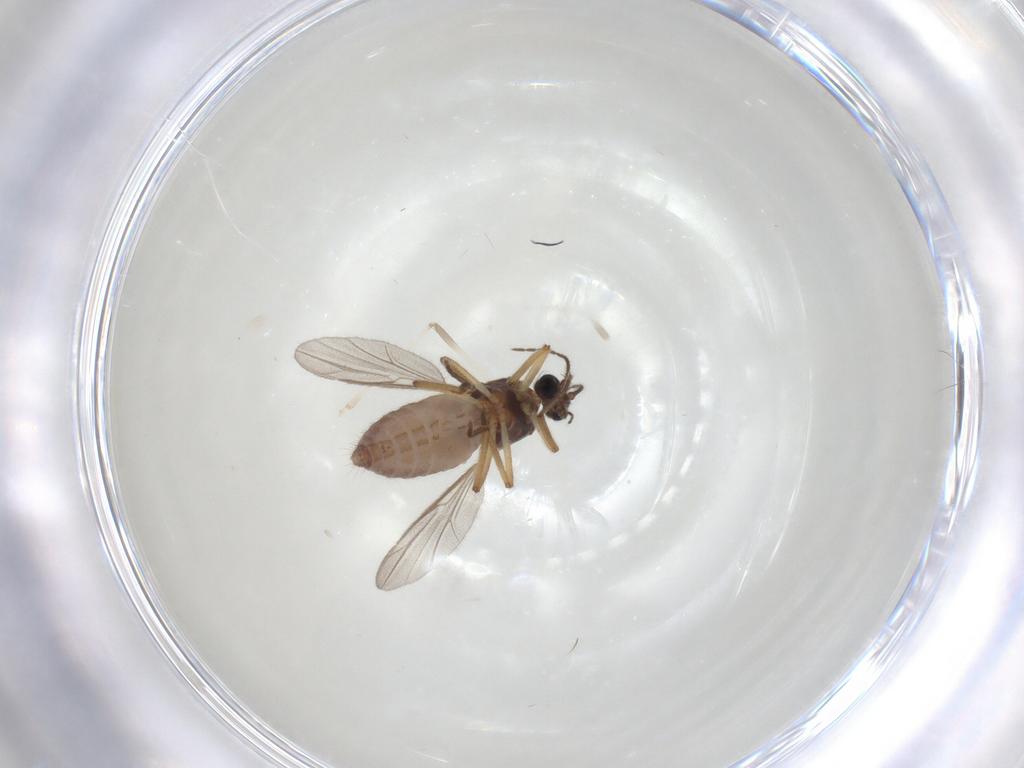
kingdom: Animalia
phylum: Arthropoda
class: Insecta
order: Diptera
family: Cecidomyiidae
